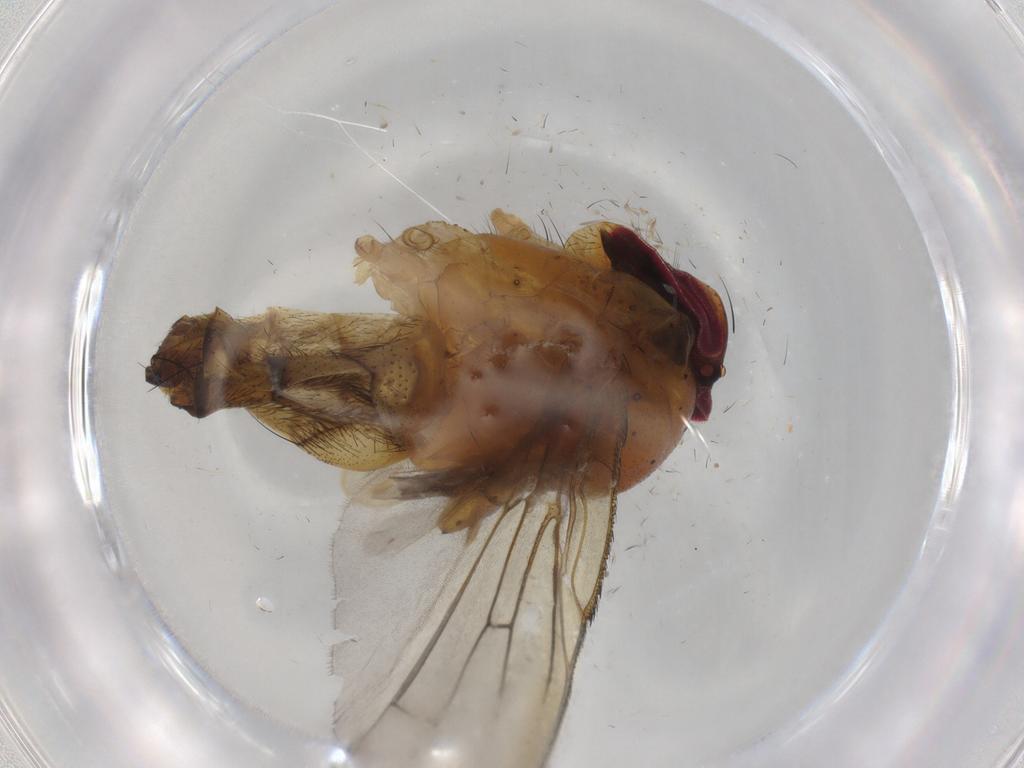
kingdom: Animalia
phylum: Arthropoda
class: Insecta
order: Diptera
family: Calliphoridae
